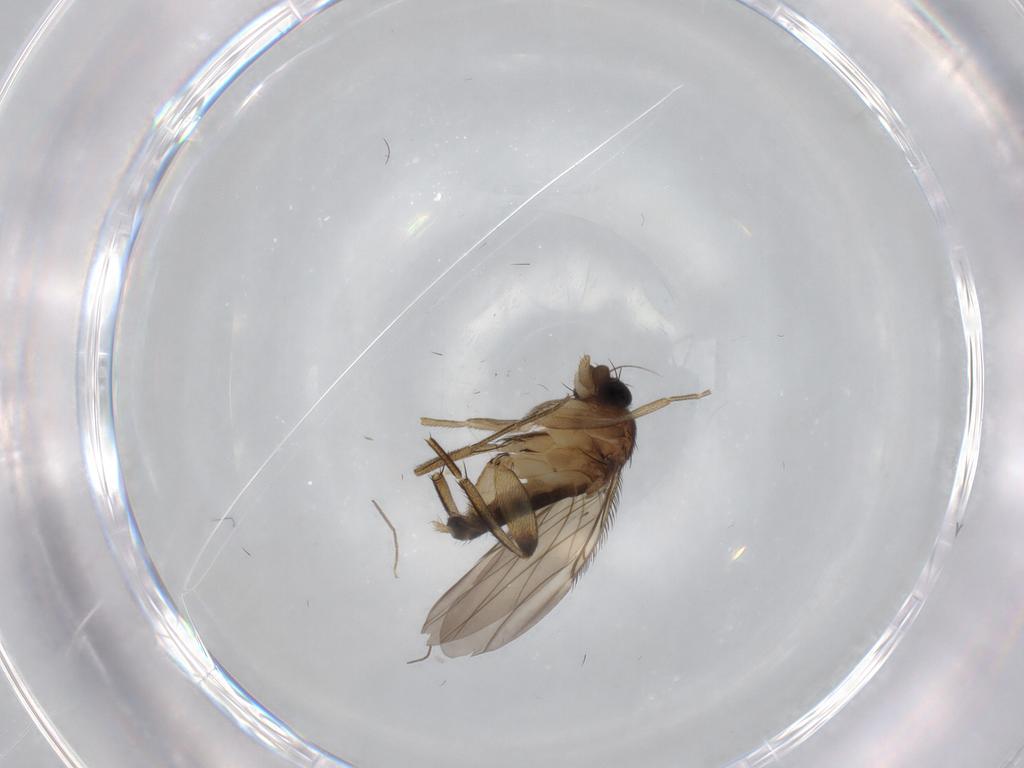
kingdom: Animalia
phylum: Arthropoda
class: Insecta
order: Diptera
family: Phoridae
